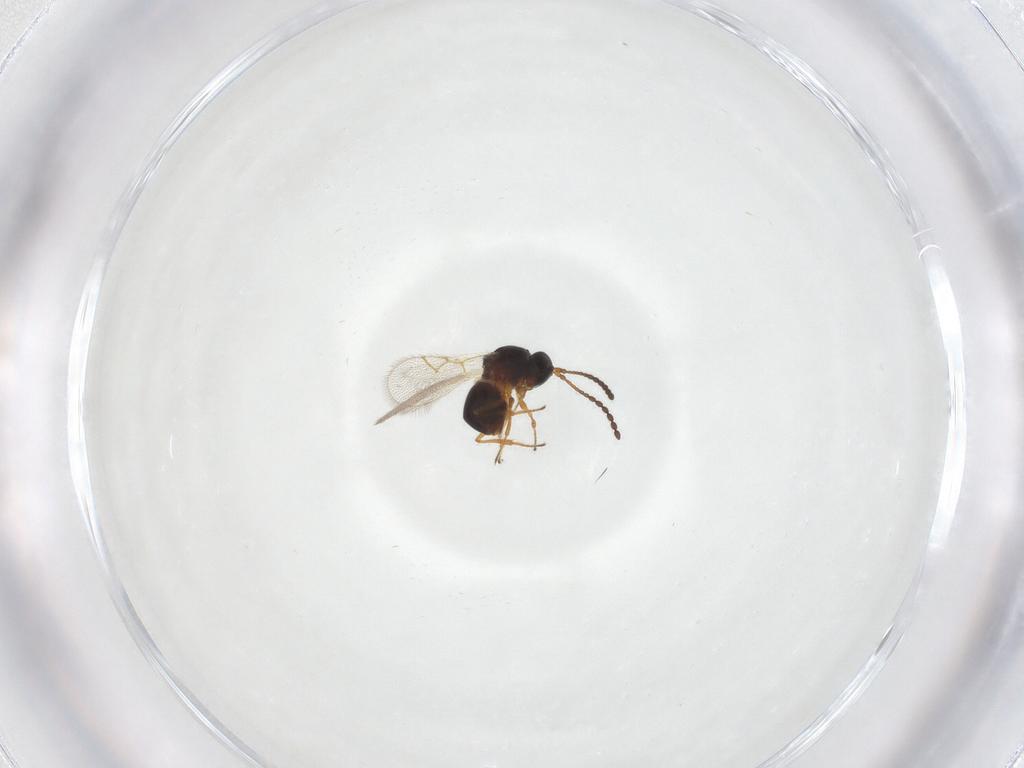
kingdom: Animalia
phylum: Arthropoda
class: Insecta
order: Hymenoptera
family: Figitidae
